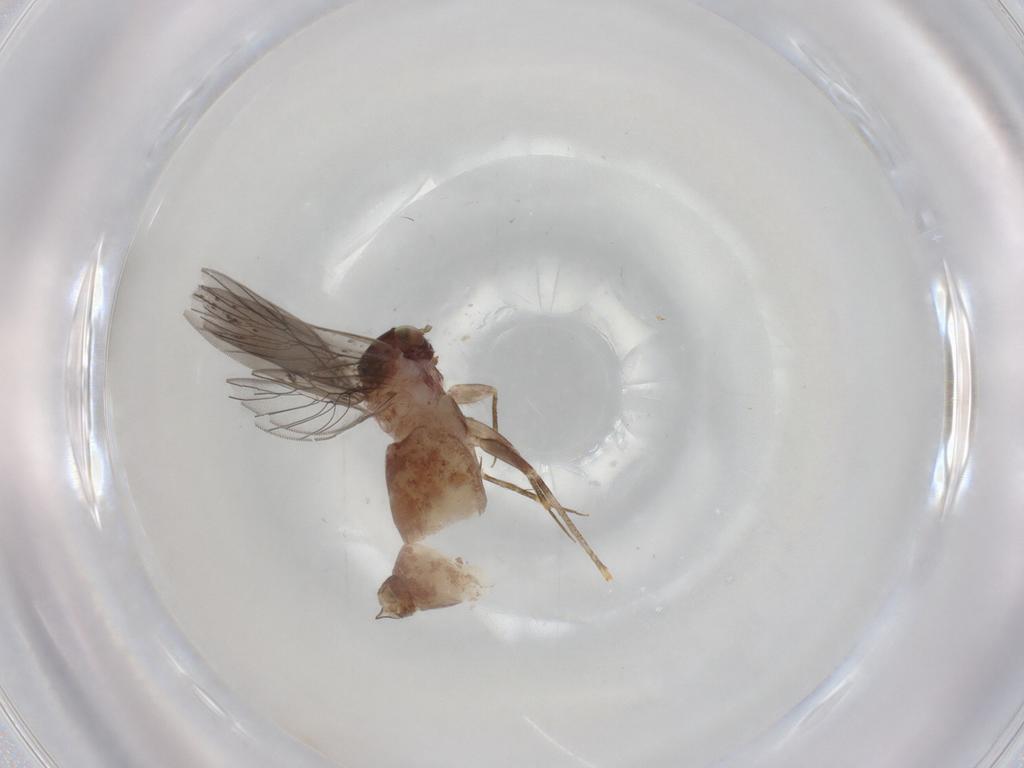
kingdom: Animalia
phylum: Arthropoda
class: Insecta
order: Psocodea
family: Lepidopsocidae
